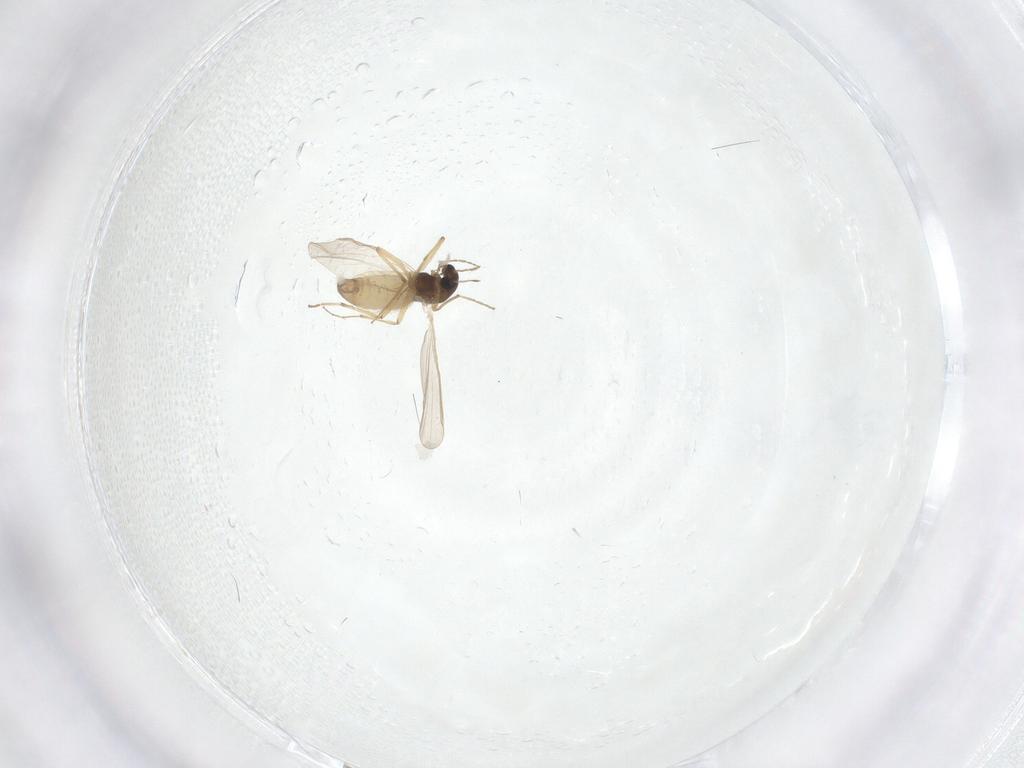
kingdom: Animalia
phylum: Arthropoda
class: Insecta
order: Diptera
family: Chironomidae
